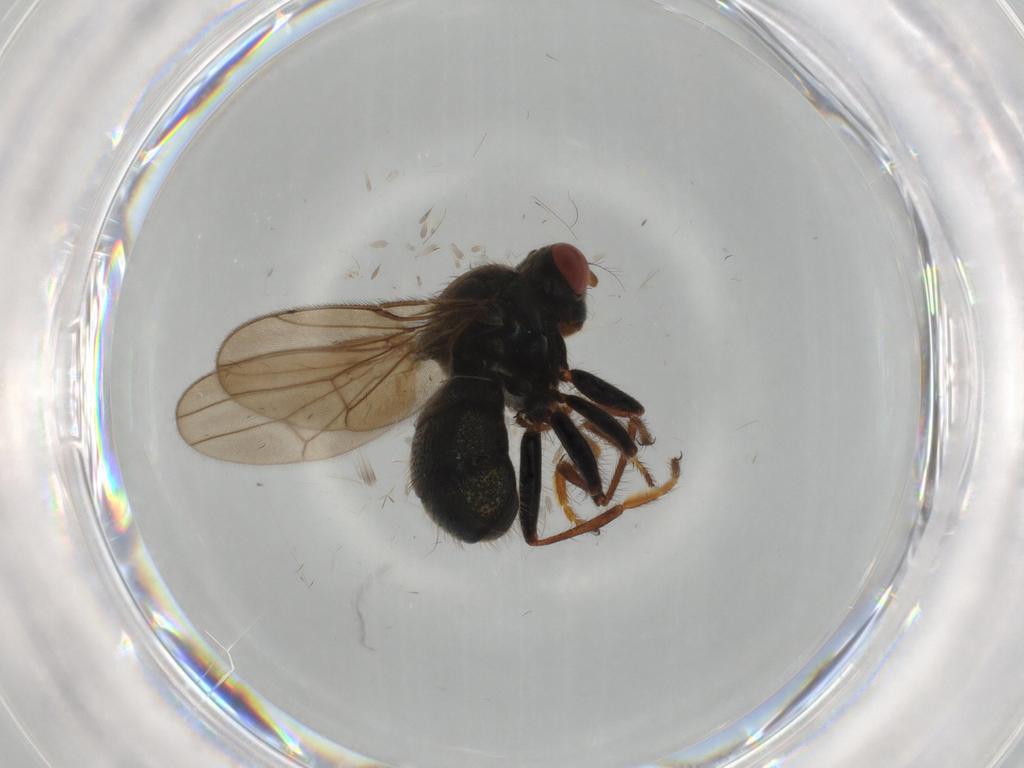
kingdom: Animalia
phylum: Arthropoda
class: Insecta
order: Diptera
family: Ephydridae
